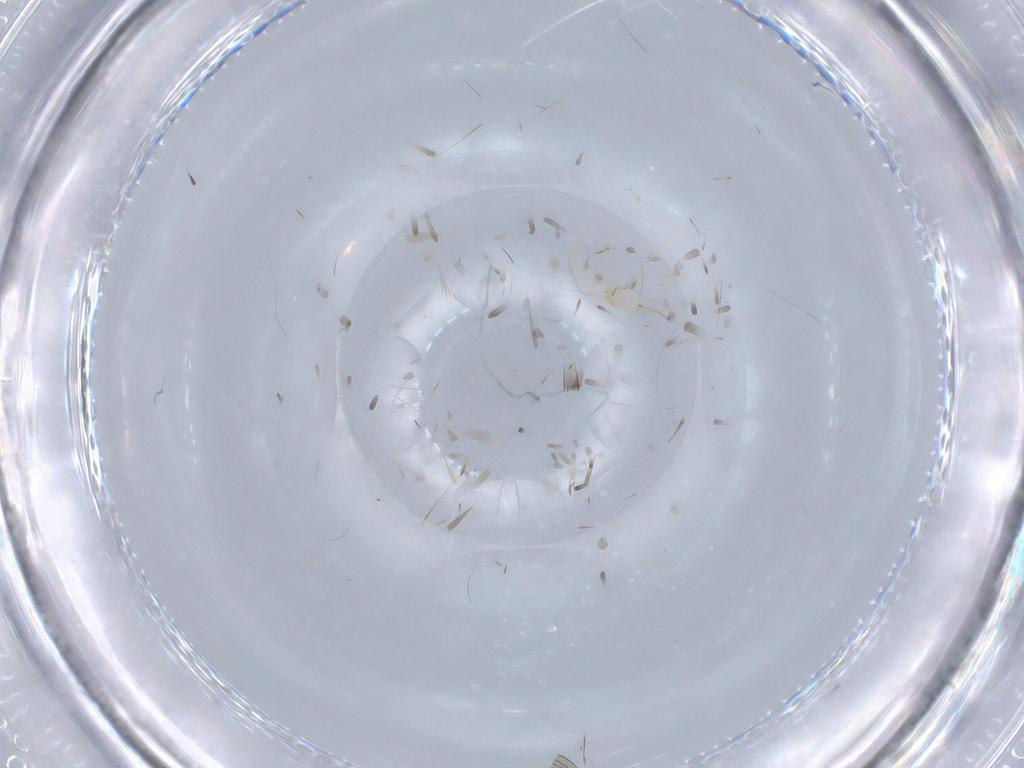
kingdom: Animalia
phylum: Arthropoda
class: Arachnida
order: Trombidiformes
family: Erythraeidae
